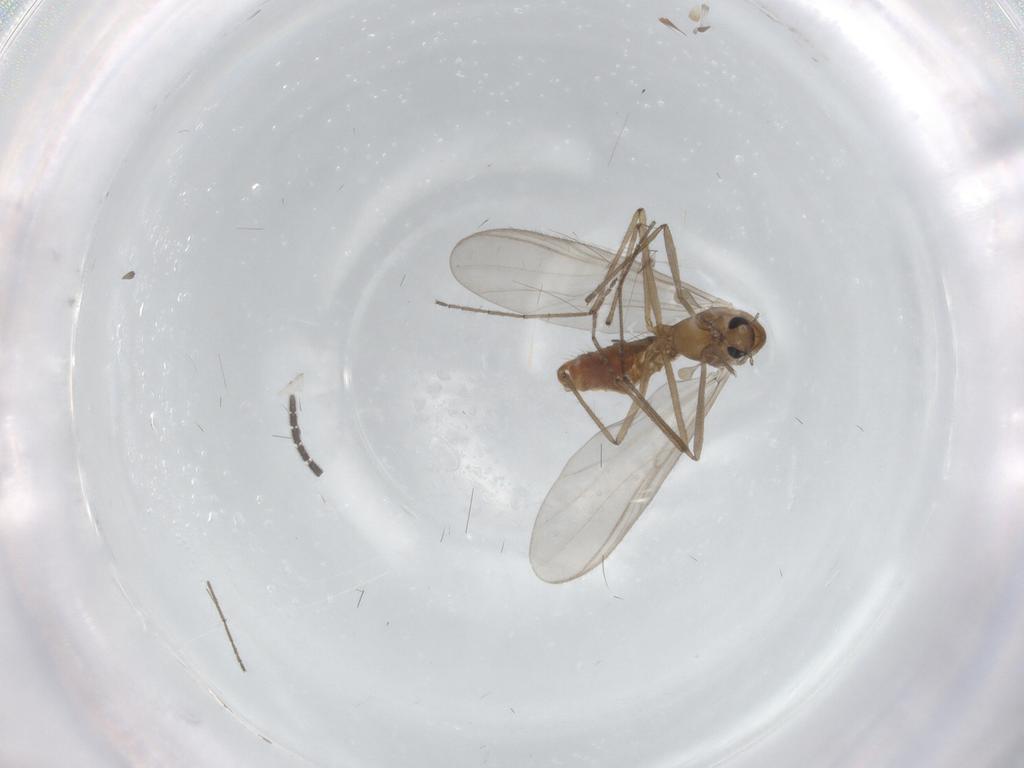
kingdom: Animalia
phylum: Arthropoda
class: Insecta
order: Diptera
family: Chironomidae
